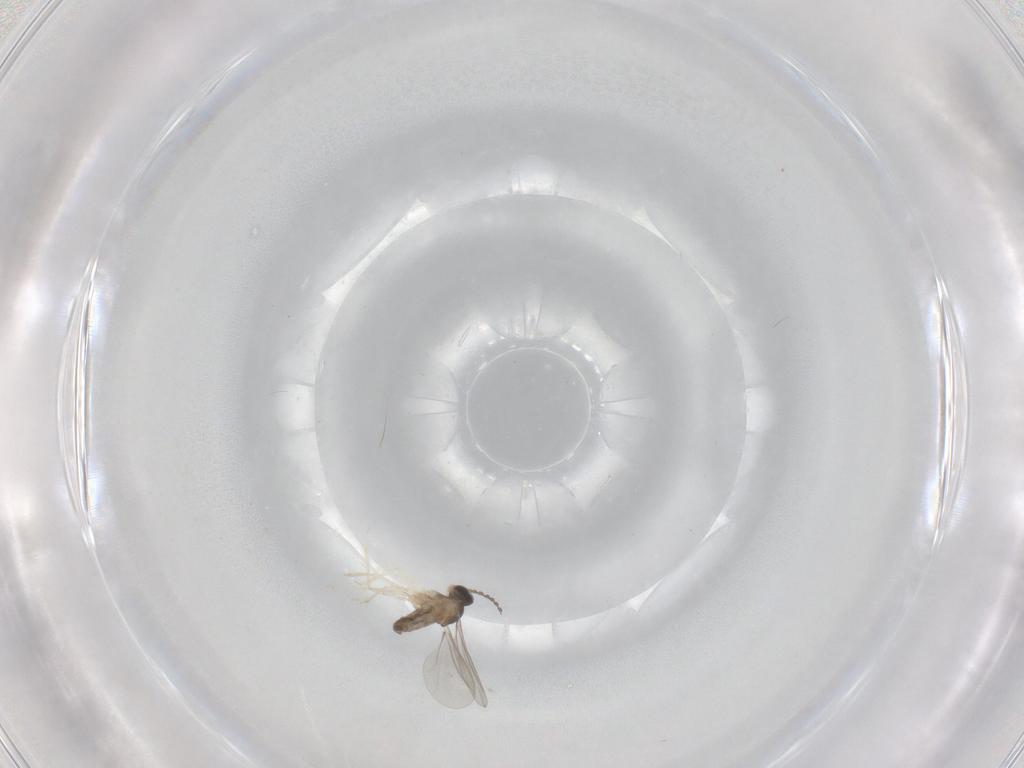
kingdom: Animalia
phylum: Arthropoda
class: Insecta
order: Diptera
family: Cecidomyiidae
